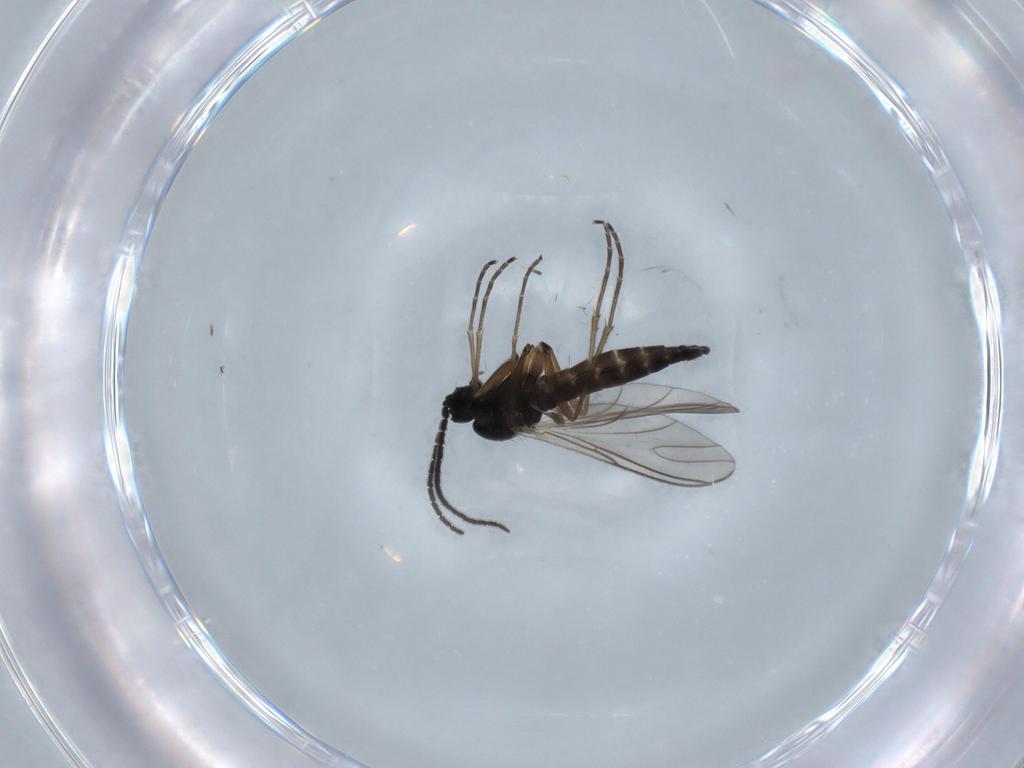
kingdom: Animalia
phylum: Arthropoda
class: Insecta
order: Diptera
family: Sciaridae
